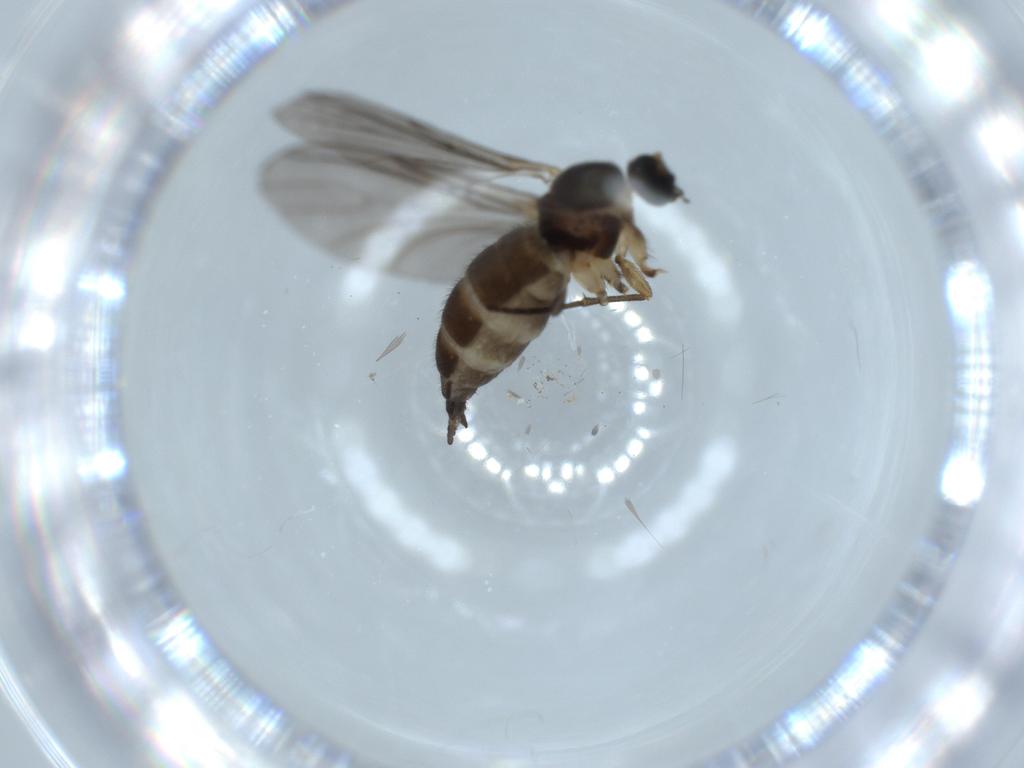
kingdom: Animalia
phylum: Arthropoda
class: Insecta
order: Diptera
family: Sciaridae
